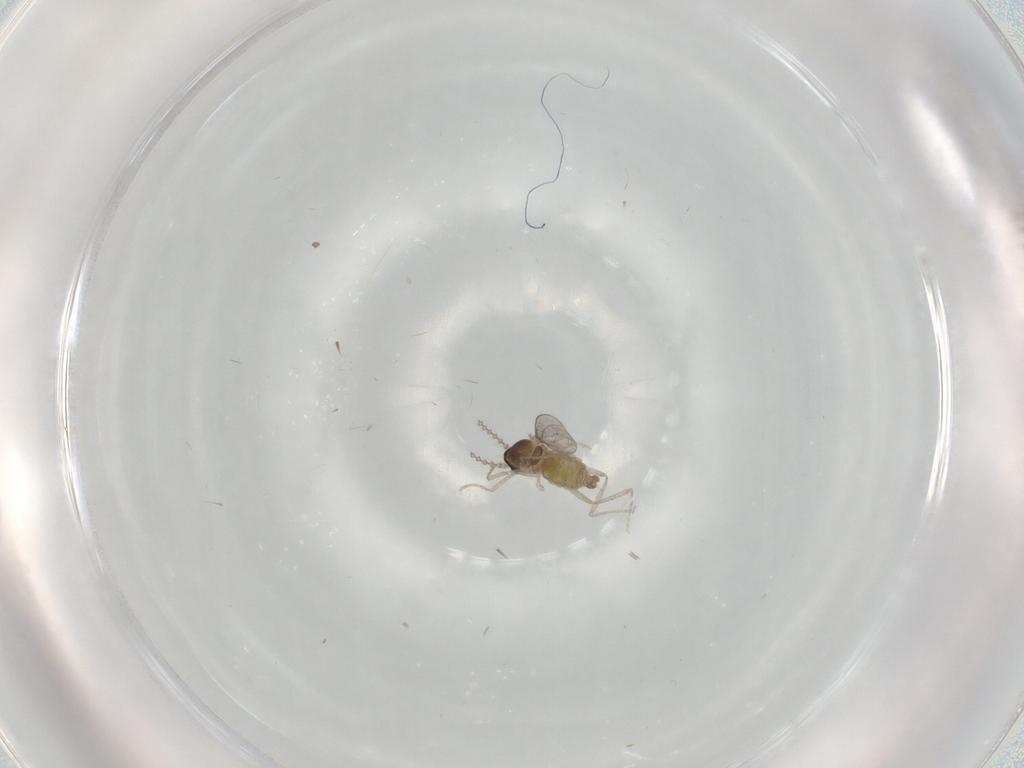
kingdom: Animalia
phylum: Arthropoda
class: Insecta
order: Diptera
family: Cecidomyiidae
